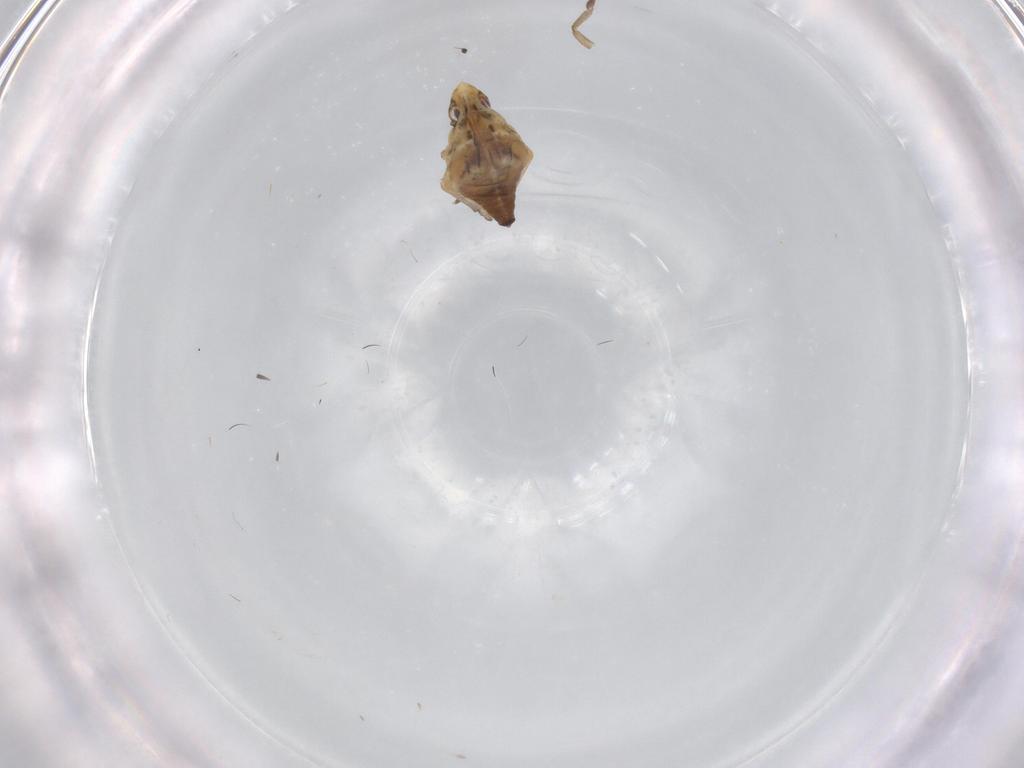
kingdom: Animalia
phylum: Arthropoda
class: Insecta
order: Hemiptera
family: Flatidae
